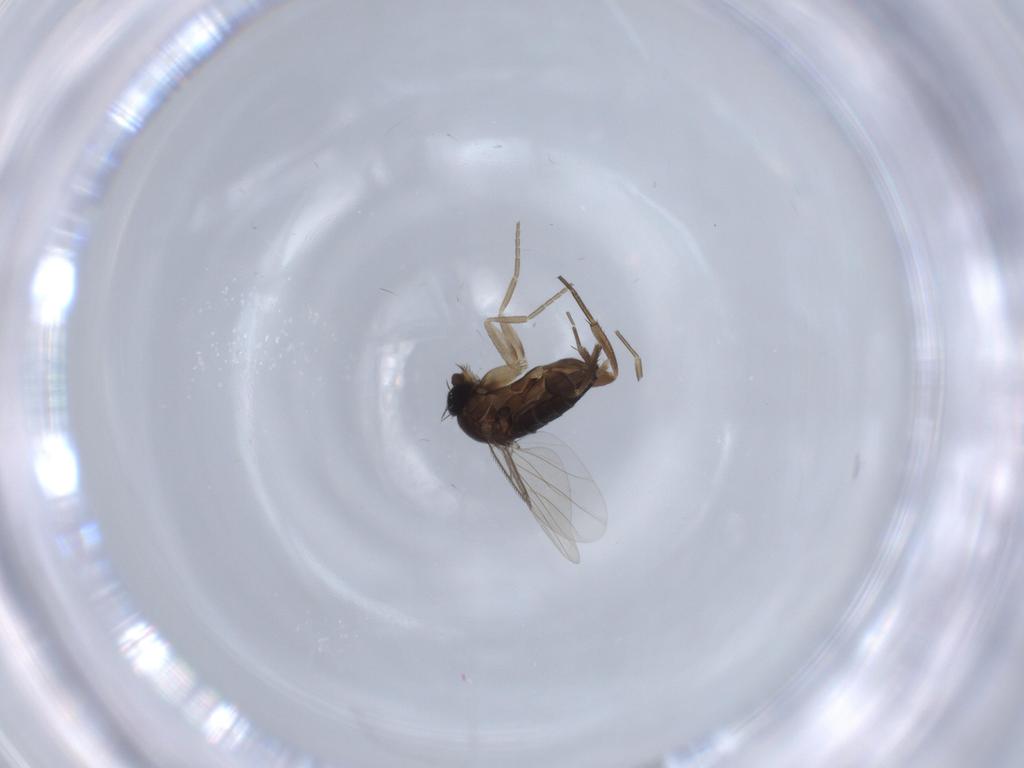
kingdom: Animalia
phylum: Arthropoda
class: Insecta
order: Diptera
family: Phoridae
